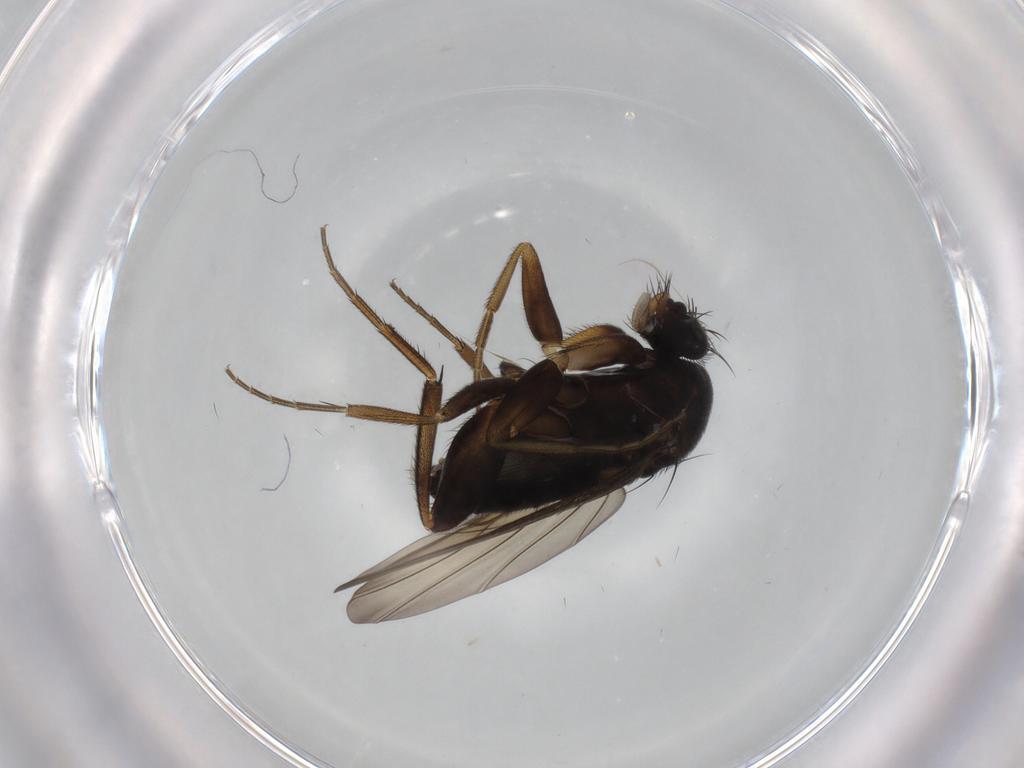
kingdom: Animalia
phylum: Arthropoda
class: Insecta
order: Diptera
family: Phoridae
